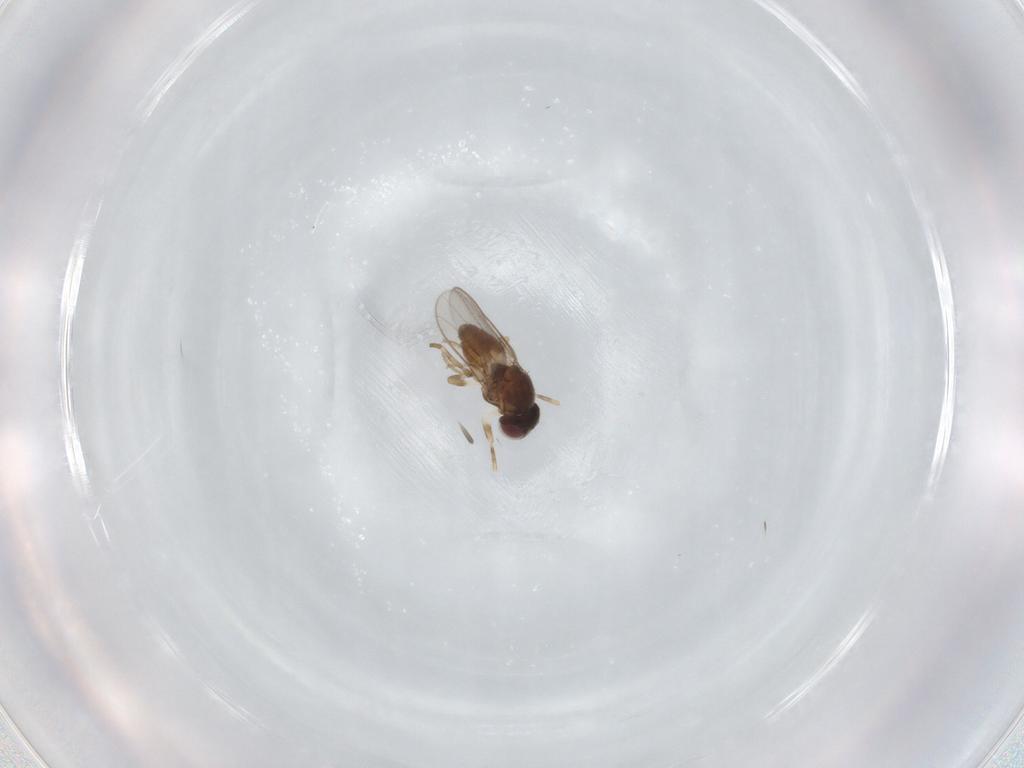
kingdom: Animalia
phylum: Arthropoda
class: Insecta
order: Diptera
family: Chloropidae
